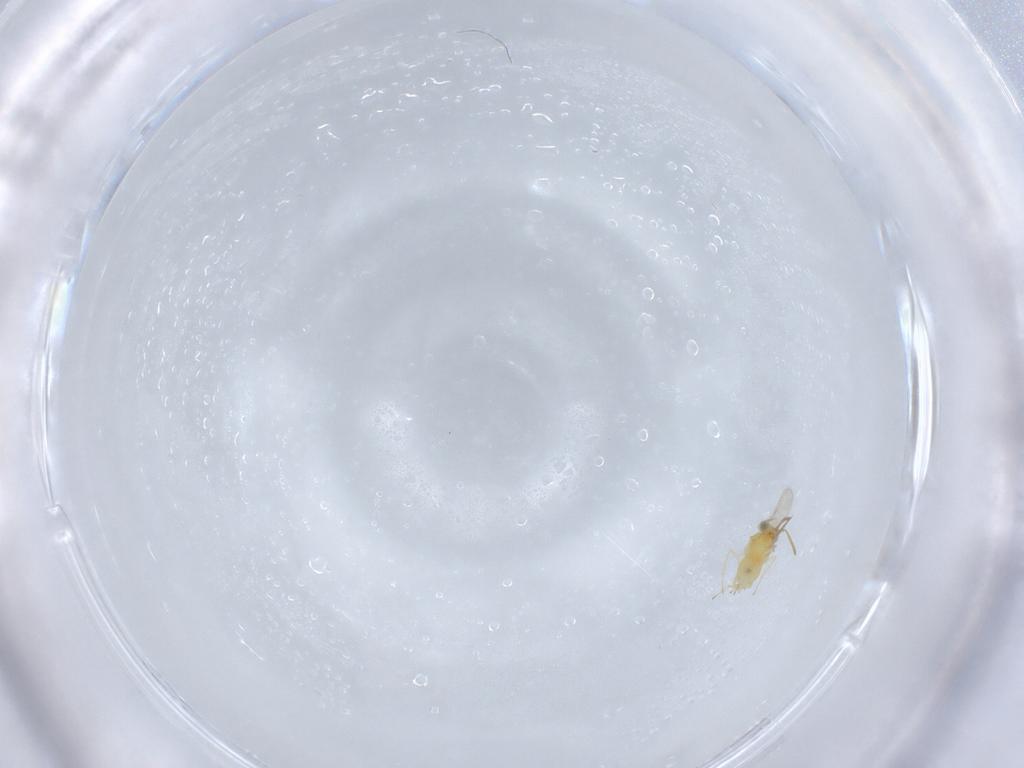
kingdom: Animalia
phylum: Arthropoda
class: Insecta
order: Hymenoptera
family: Aphelinidae
